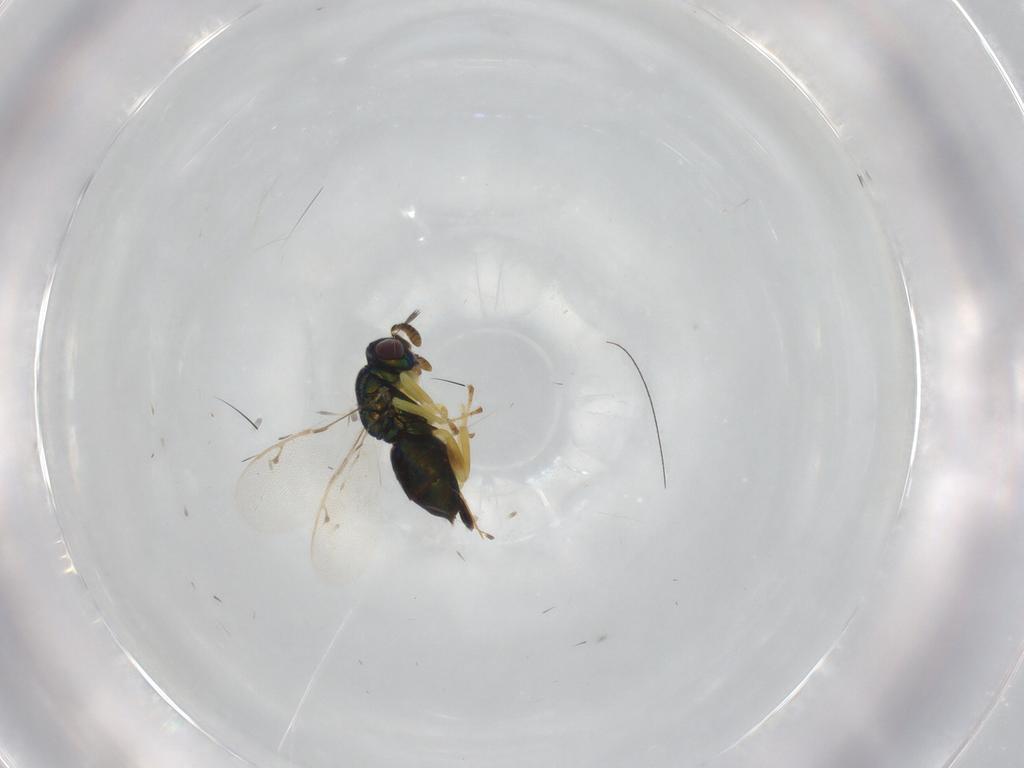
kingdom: Animalia
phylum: Arthropoda
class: Insecta
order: Hymenoptera
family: Pirenidae
